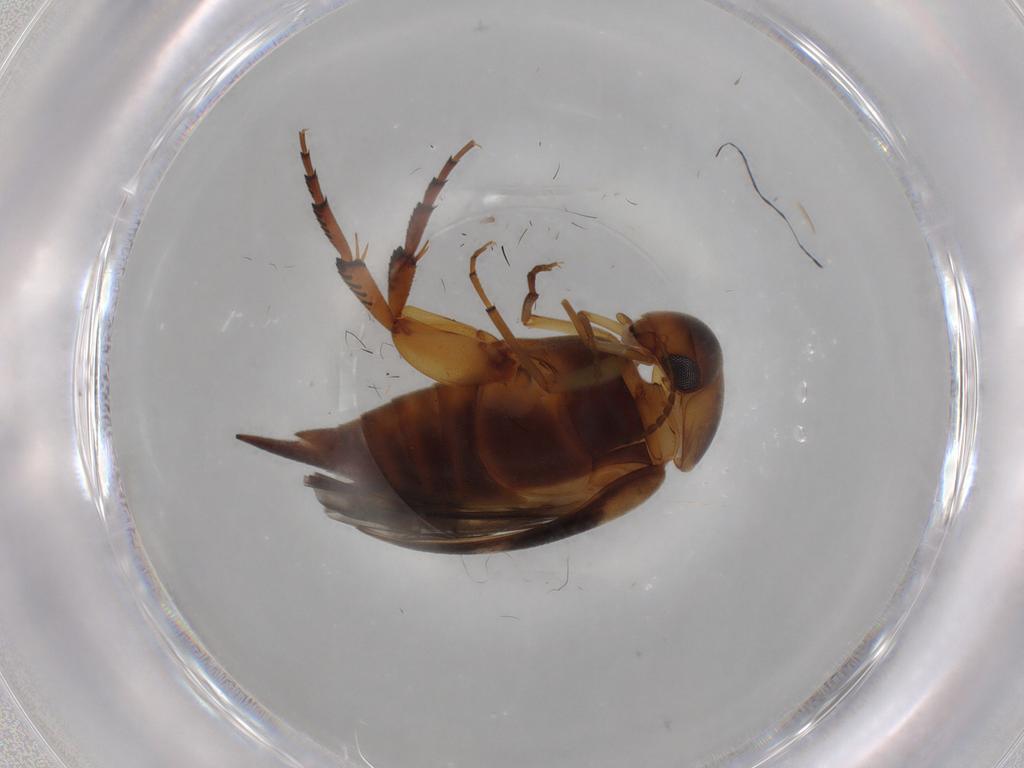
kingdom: Animalia
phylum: Arthropoda
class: Insecta
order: Coleoptera
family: Mordellidae
